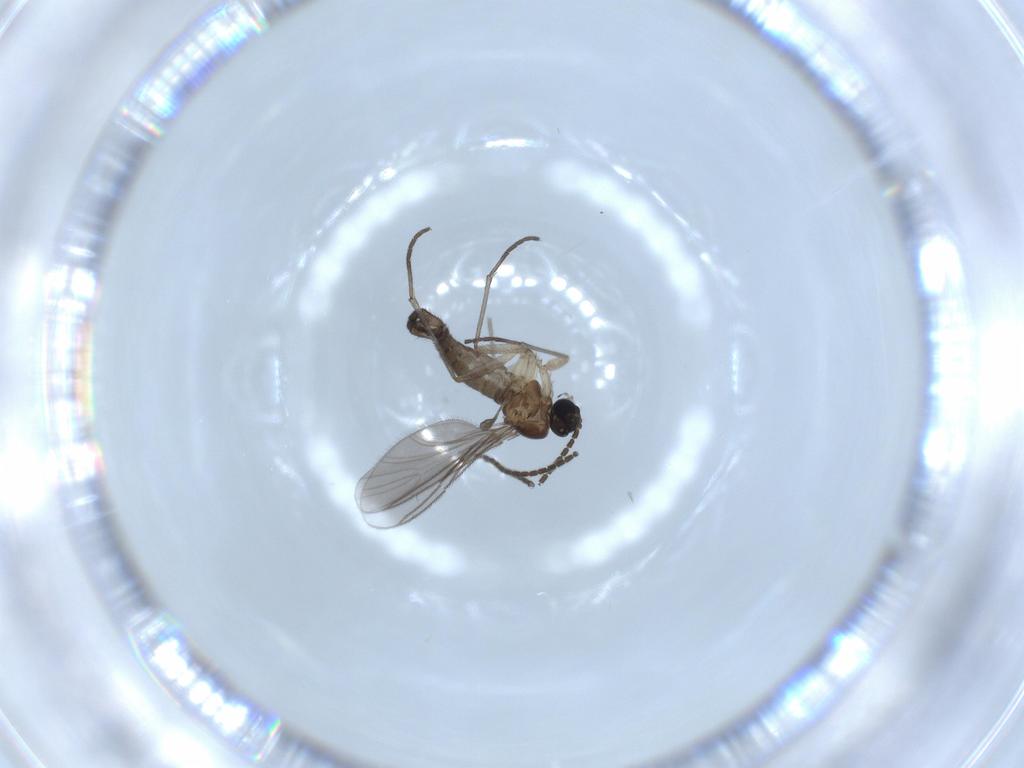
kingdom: Animalia
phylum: Arthropoda
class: Insecta
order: Diptera
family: Sciaridae
